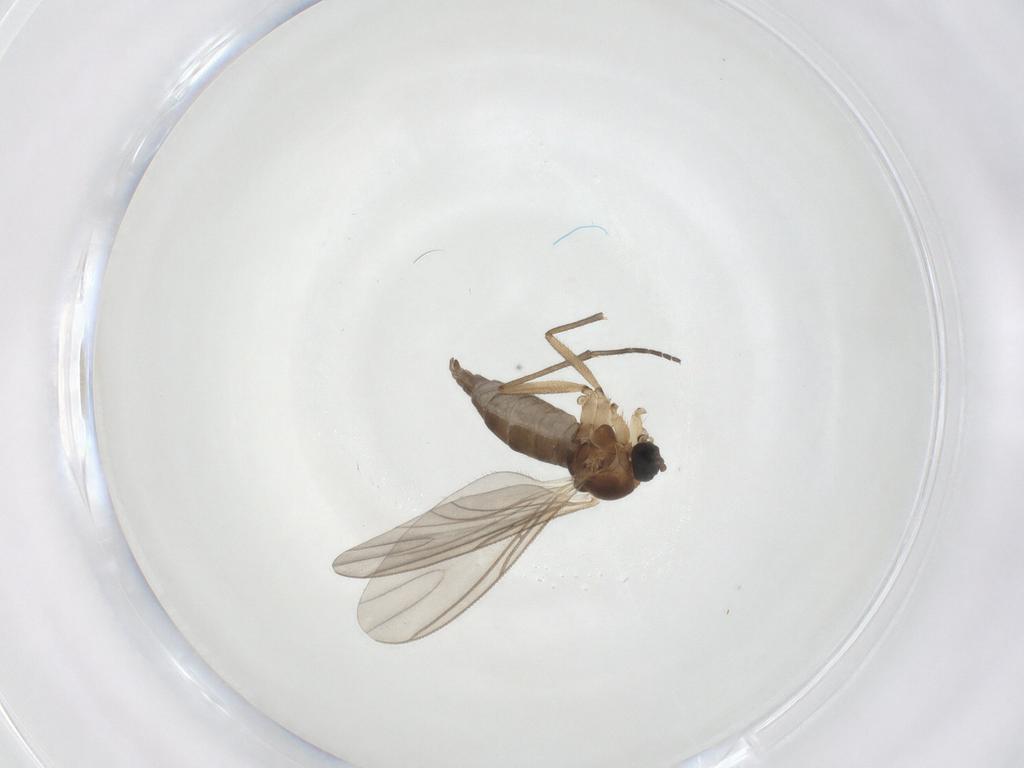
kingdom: Animalia
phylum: Arthropoda
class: Insecta
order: Diptera
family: Sciaridae
